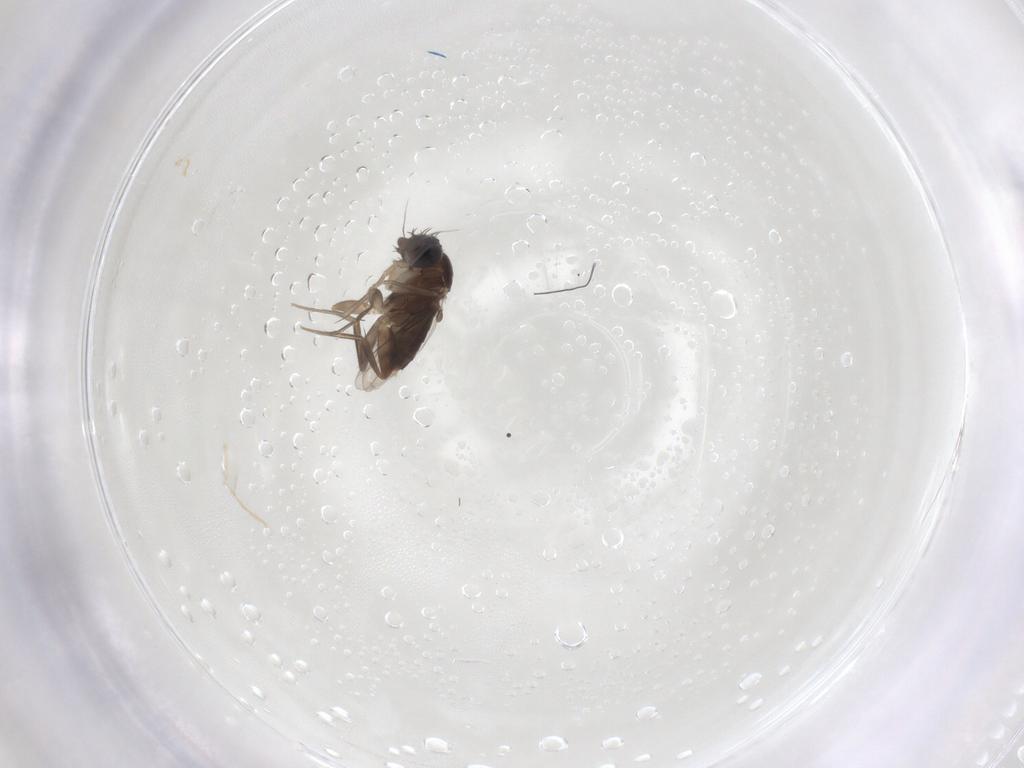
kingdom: Animalia
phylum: Arthropoda
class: Insecta
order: Diptera
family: Phoridae
